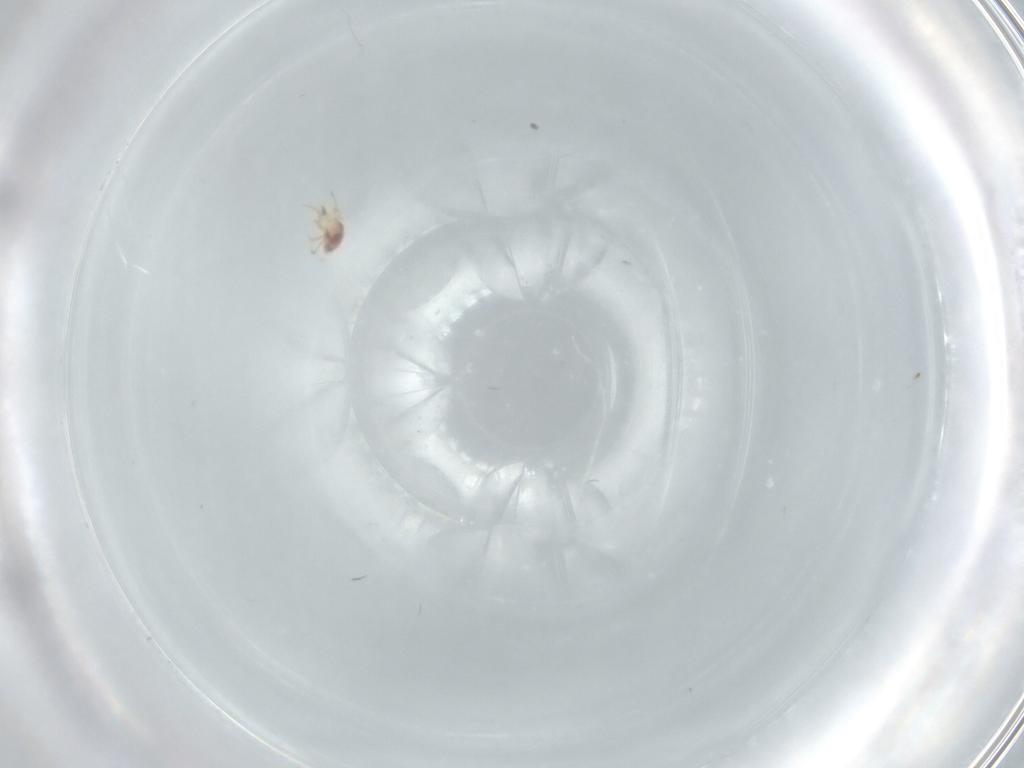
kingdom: Animalia
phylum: Arthropoda
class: Arachnida
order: Mesostigmata
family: Phytoseiidae
